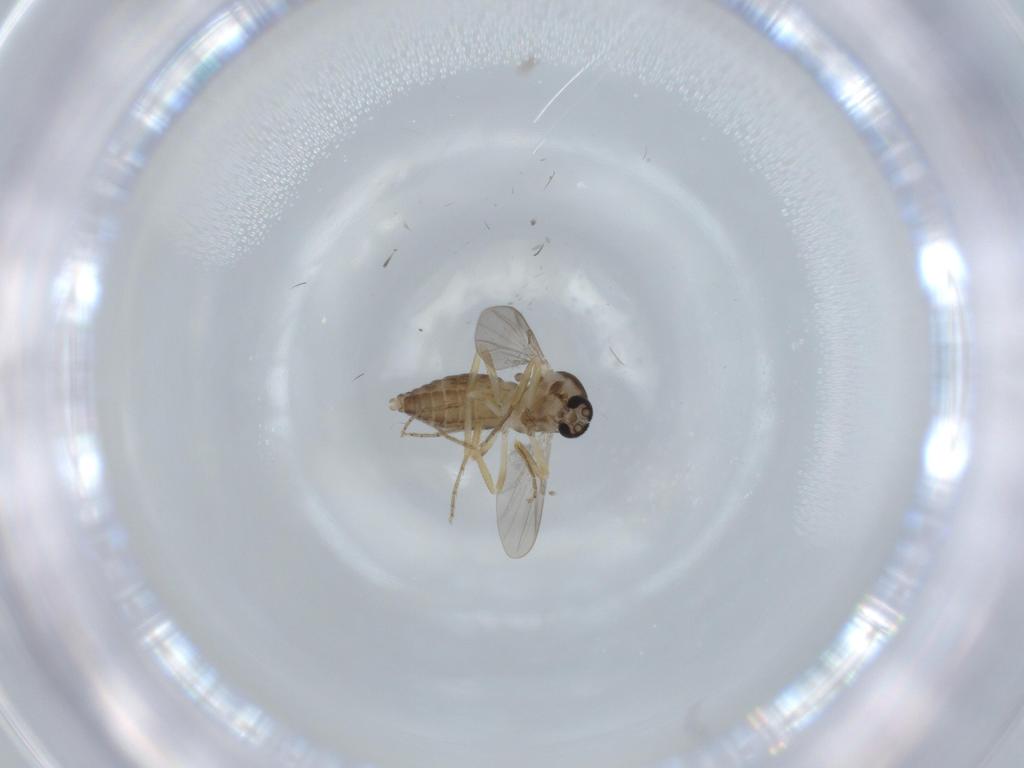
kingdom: Animalia
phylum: Arthropoda
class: Insecta
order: Diptera
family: Ceratopogonidae
